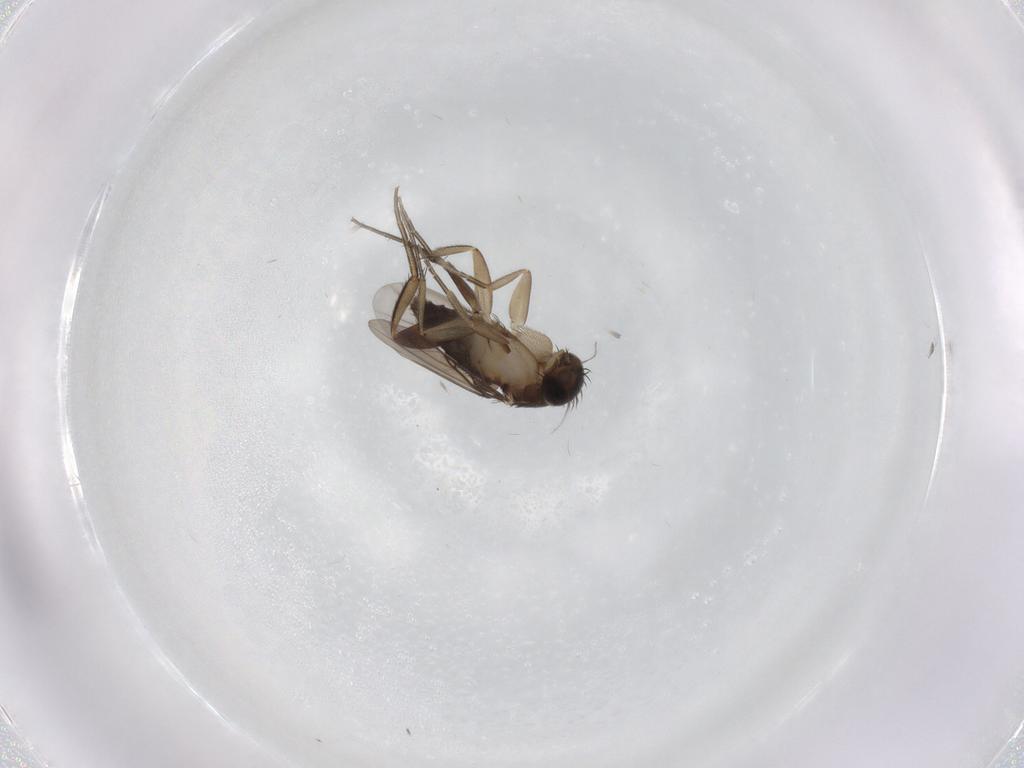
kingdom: Animalia
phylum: Arthropoda
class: Insecta
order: Diptera
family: Phoridae
